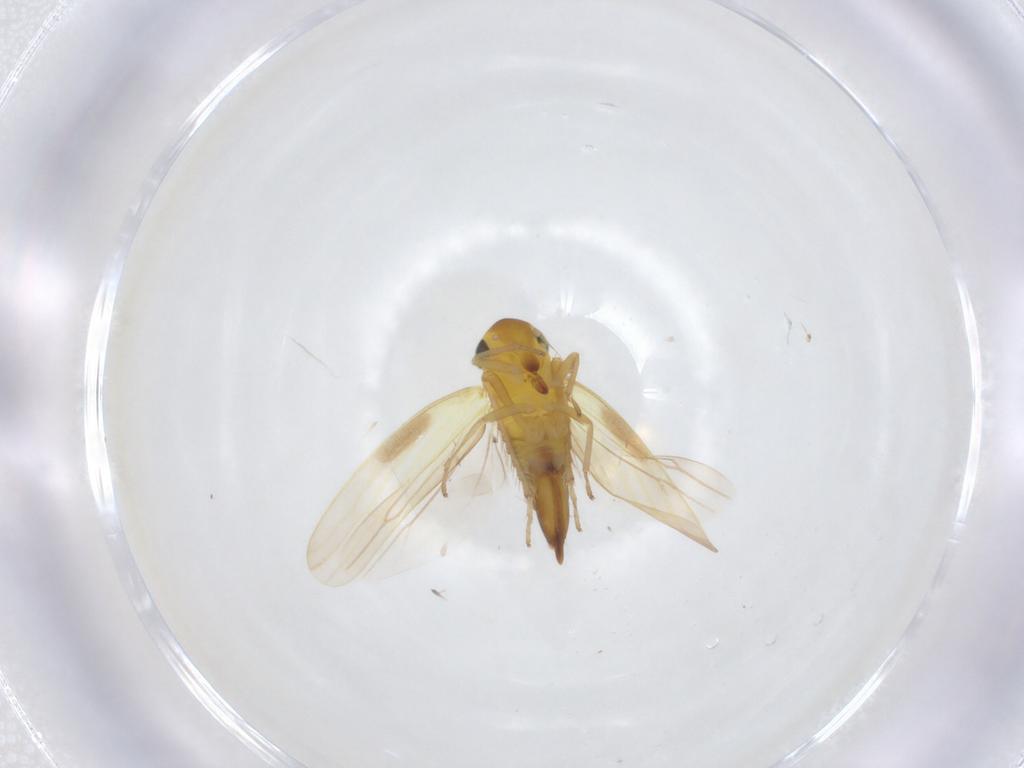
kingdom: Animalia
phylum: Arthropoda
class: Insecta
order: Hemiptera
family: Cicadellidae
